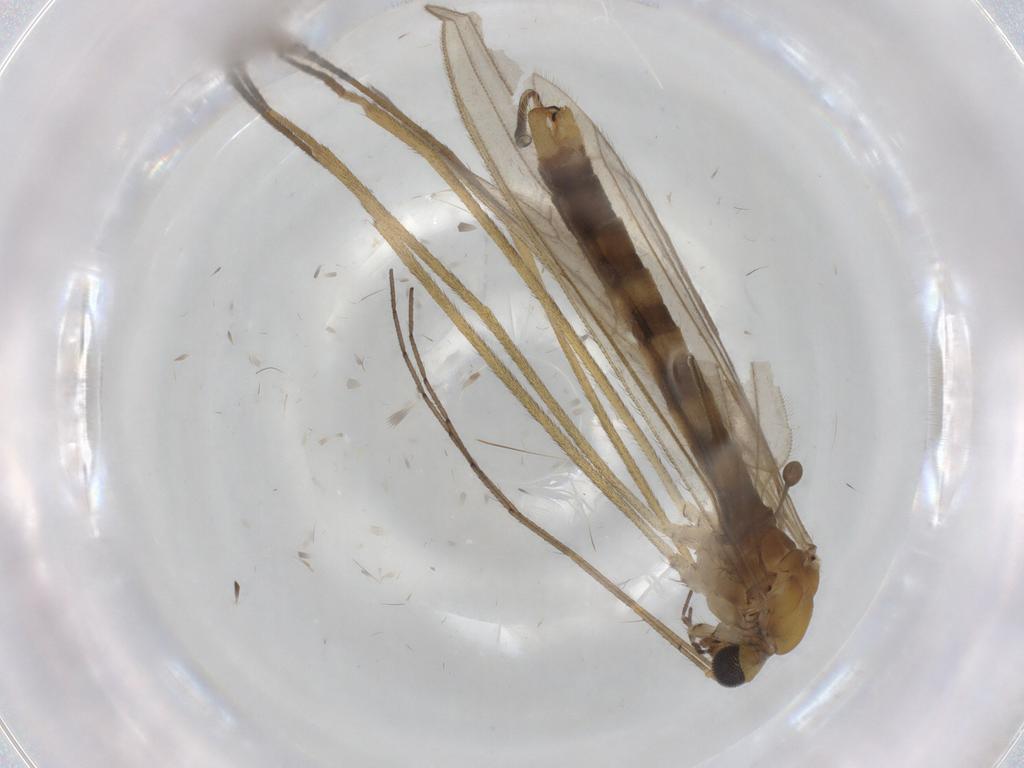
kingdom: Animalia
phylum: Arthropoda
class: Insecta
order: Diptera
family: Limoniidae
